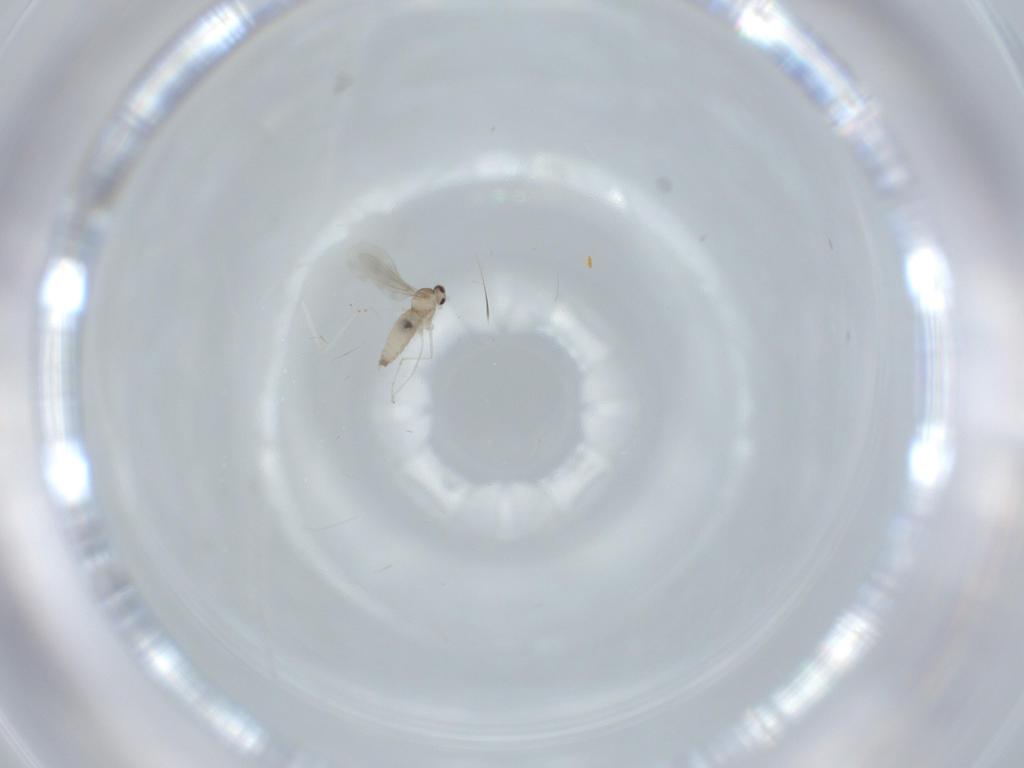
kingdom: Animalia
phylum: Arthropoda
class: Insecta
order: Diptera
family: Cecidomyiidae
